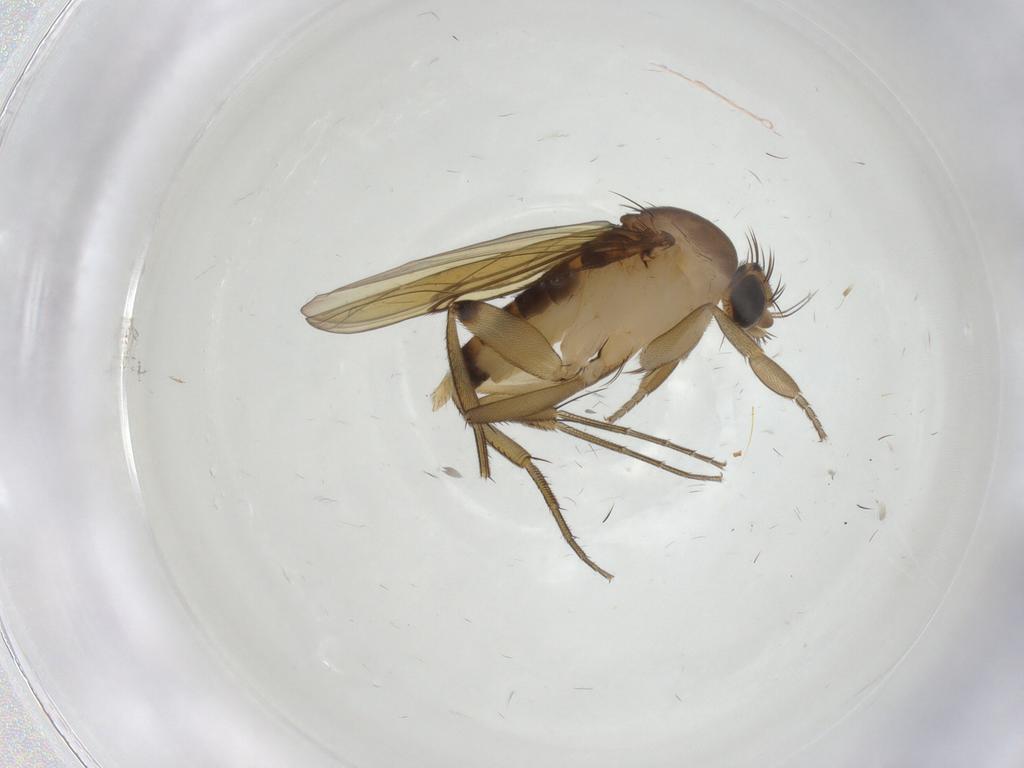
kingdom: Animalia
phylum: Arthropoda
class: Insecta
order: Diptera
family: Phoridae
